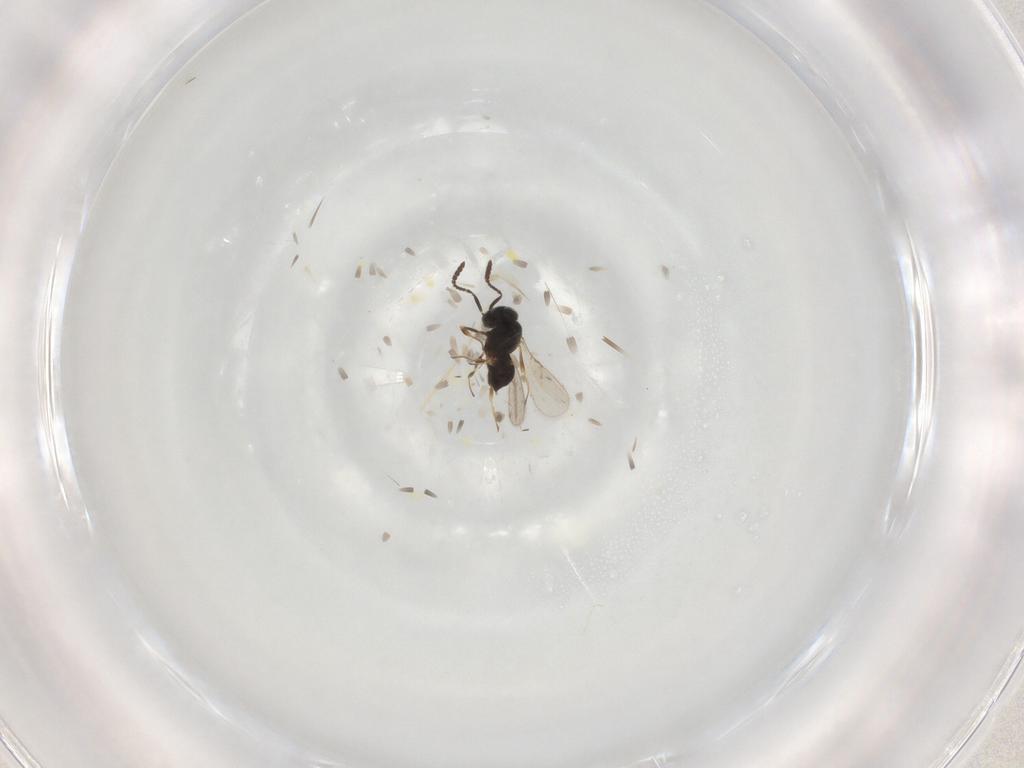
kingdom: Animalia
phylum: Arthropoda
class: Insecta
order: Hymenoptera
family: Scelionidae
